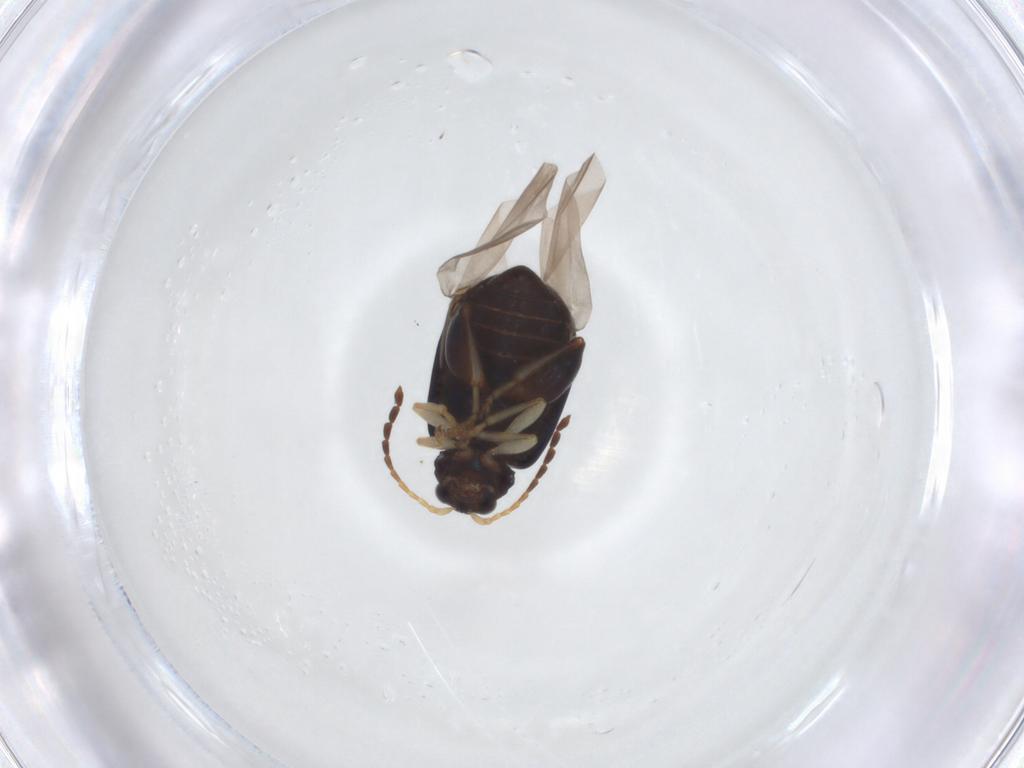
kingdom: Animalia
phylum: Arthropoda
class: Insecta
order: Coleoptera
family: Chrysomelidae
